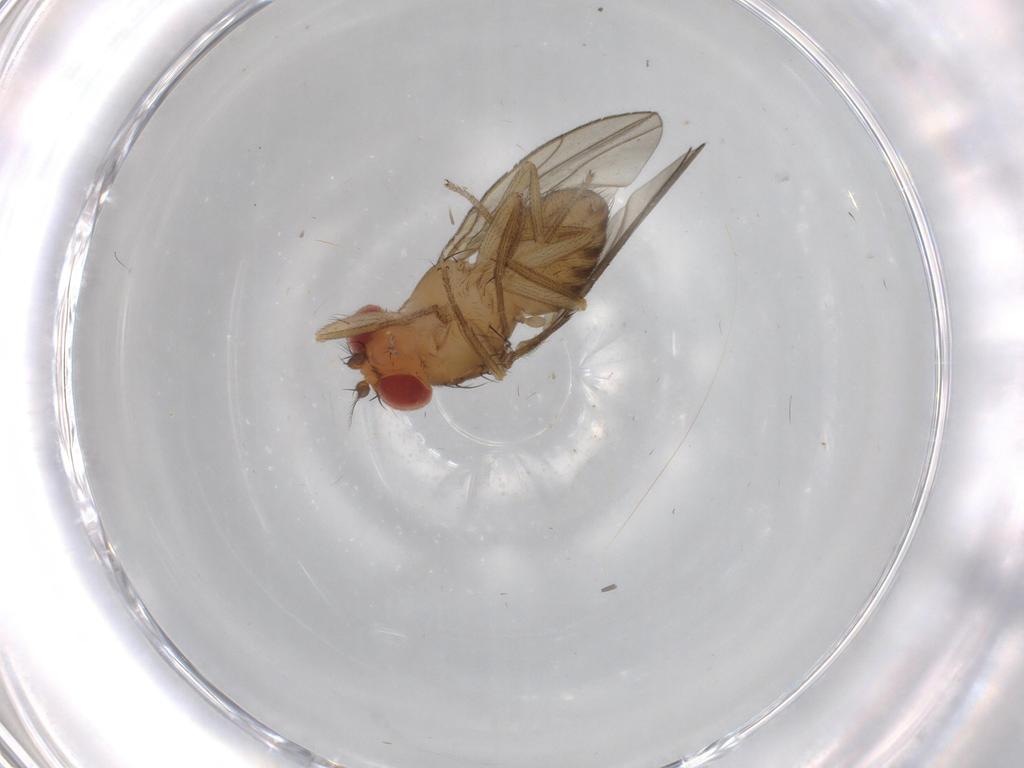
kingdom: Animalia
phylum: Arthropoda
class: Insecta
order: Diptera
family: Drosophilidae
